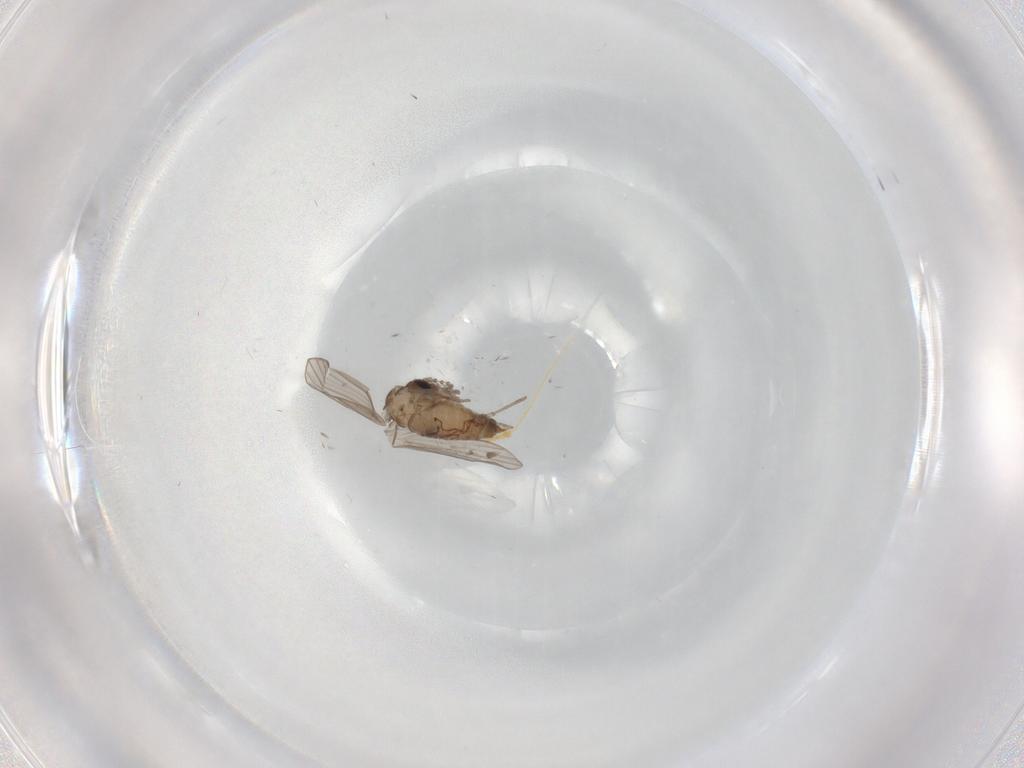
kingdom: Animalia
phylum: Arthropoda
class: Insecta
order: Diptera
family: Psychodidae
